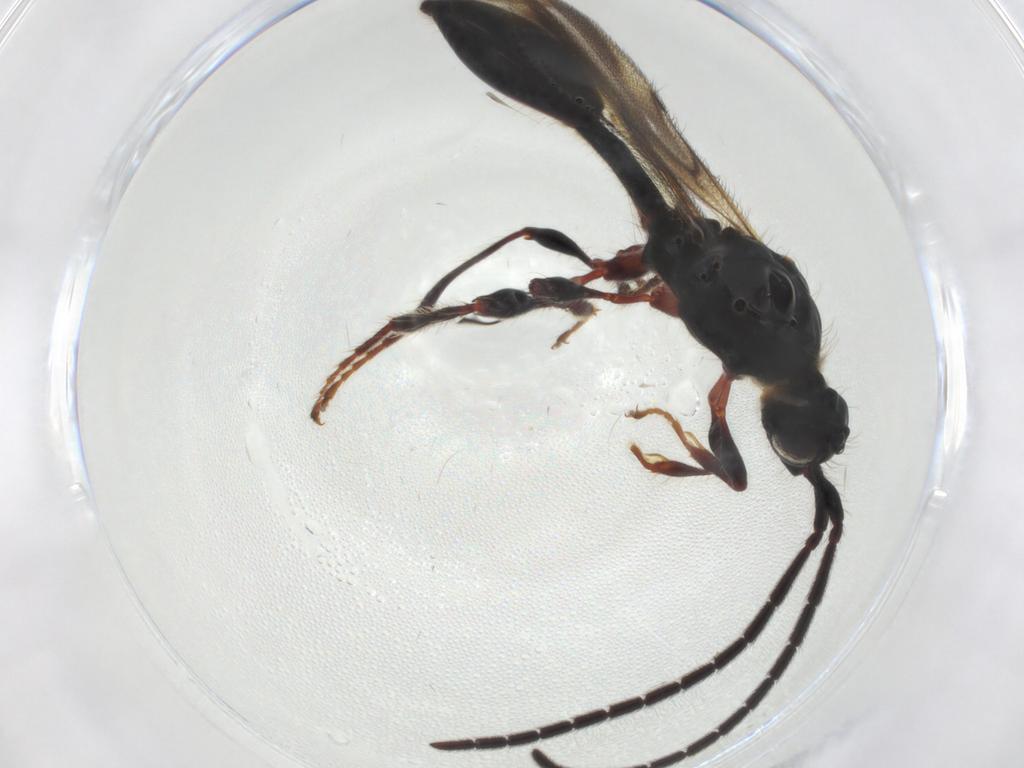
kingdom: Animalia
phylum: Arthropoda
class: Insecta
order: Hymenoptera
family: Diapriidae
